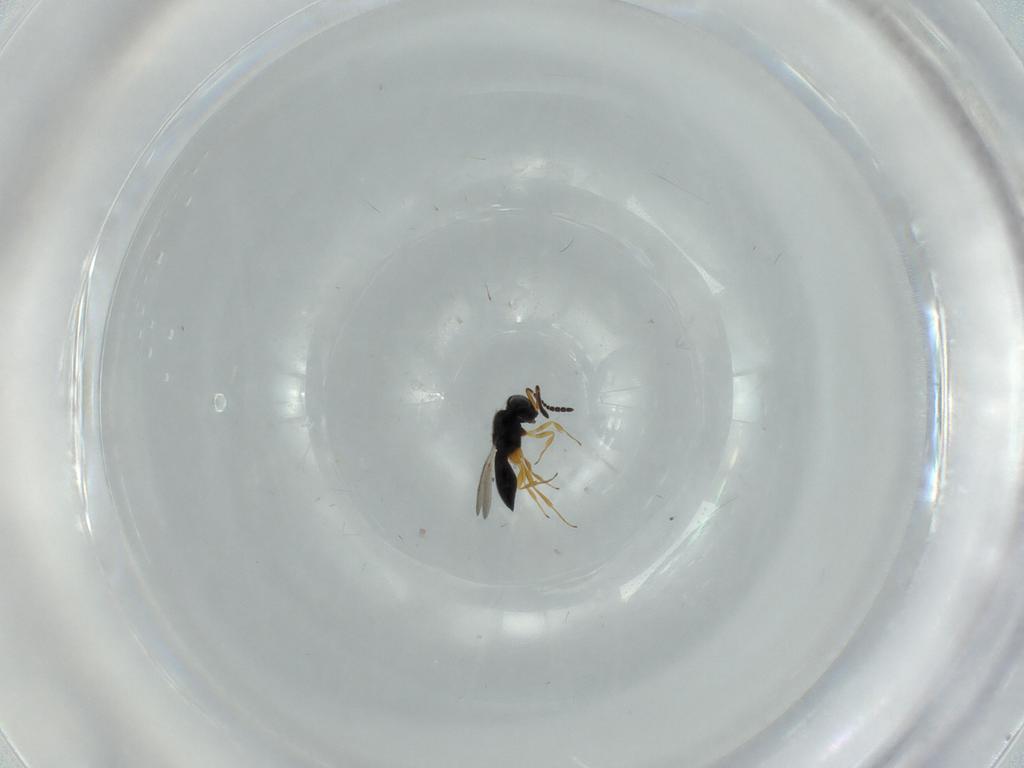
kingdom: Animalia
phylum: Arthropoda
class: Insecta
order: Hymenoptera
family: Scelionidae
